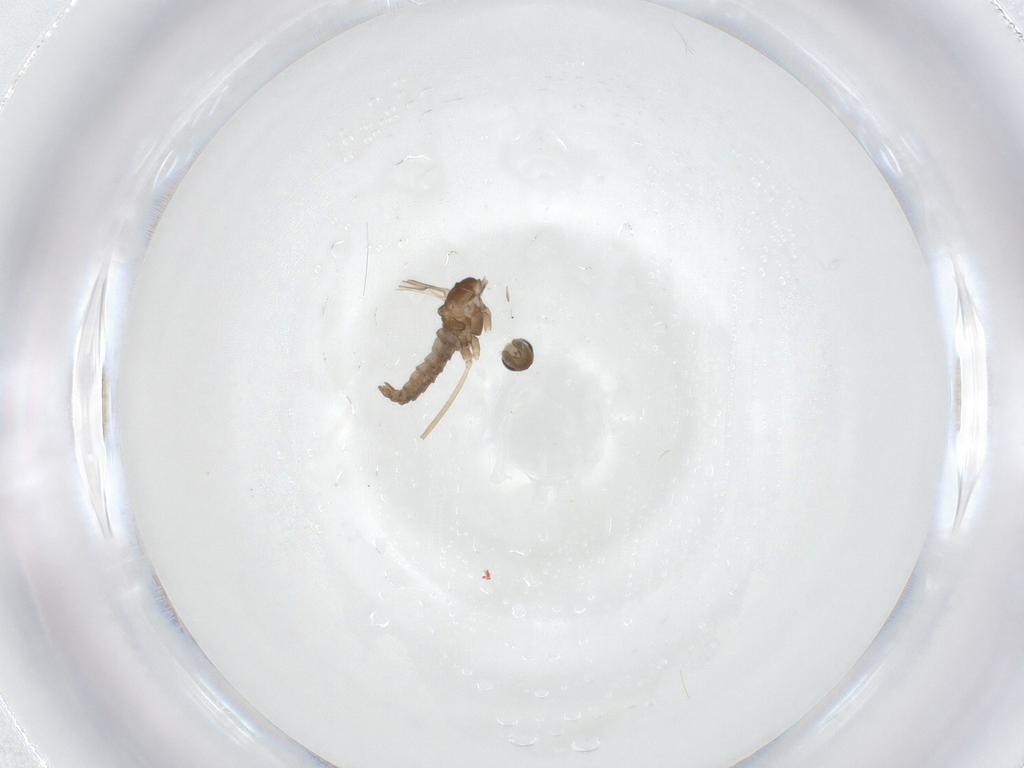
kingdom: Animalia
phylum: Arthropoda
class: Insecta
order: Diptera
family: Cecidomyiidae
